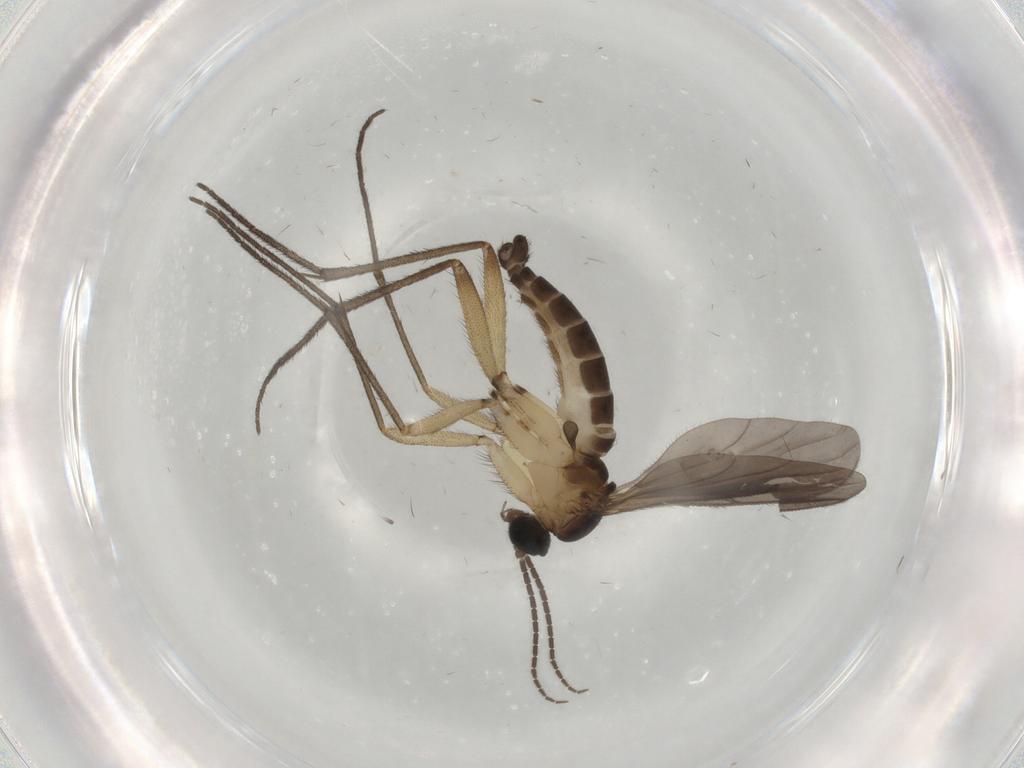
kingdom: Animalia
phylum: Arthropoda
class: Insecta
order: Diptera
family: Sciaridae
